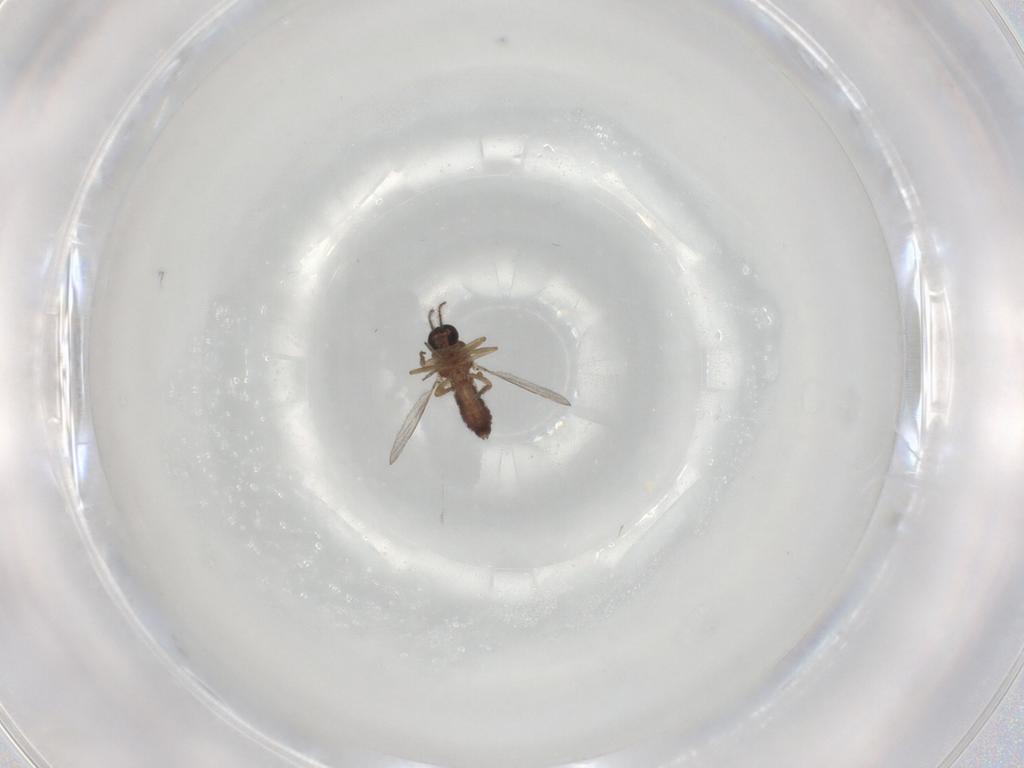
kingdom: Animalia
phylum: Arthropoda
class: Insecta
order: Diptera
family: Ceratopogonidae
